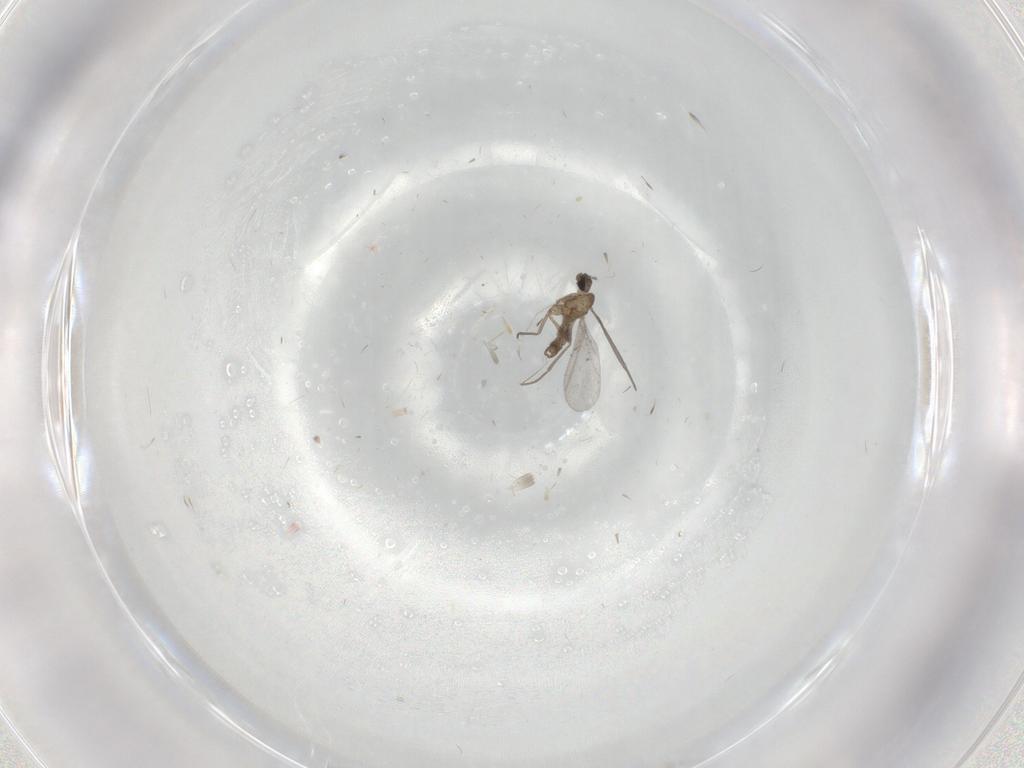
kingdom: Animalia
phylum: Arthropoda
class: Insecta
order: Diptera
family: Sciaridae
